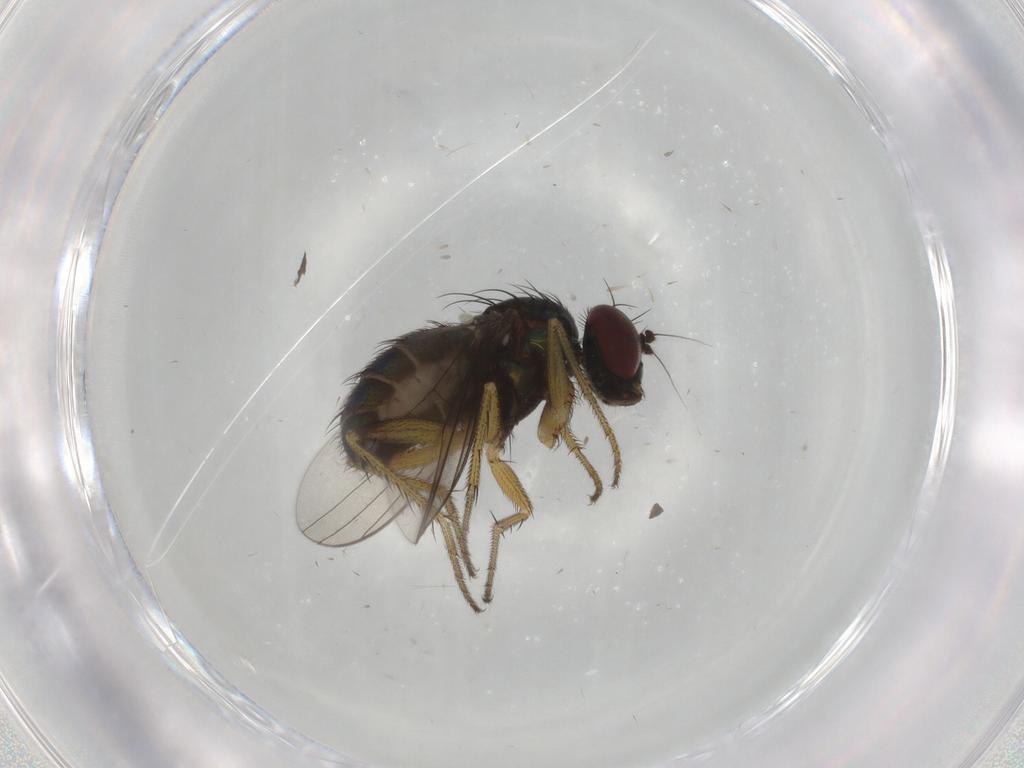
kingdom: Animalia
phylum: Arthropoda
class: Insecta
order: Diptera
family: Dolichopodidae
